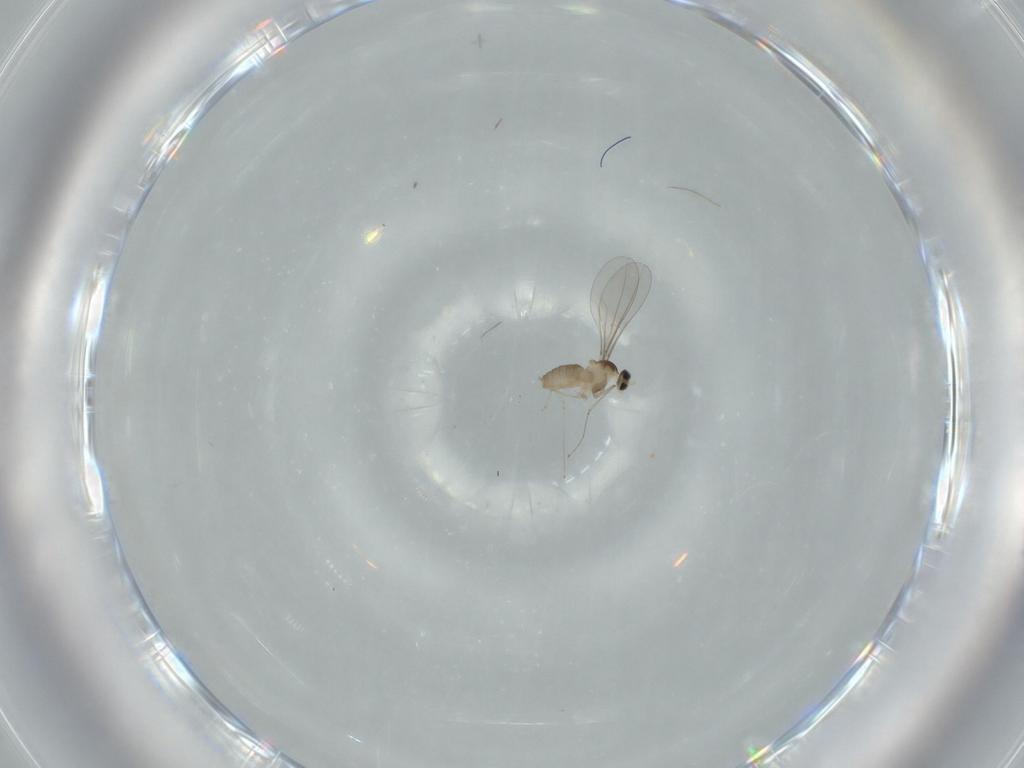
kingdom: Animalia
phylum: Arthropoda
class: Insecta
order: Diptera
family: Cecidomyiidae
